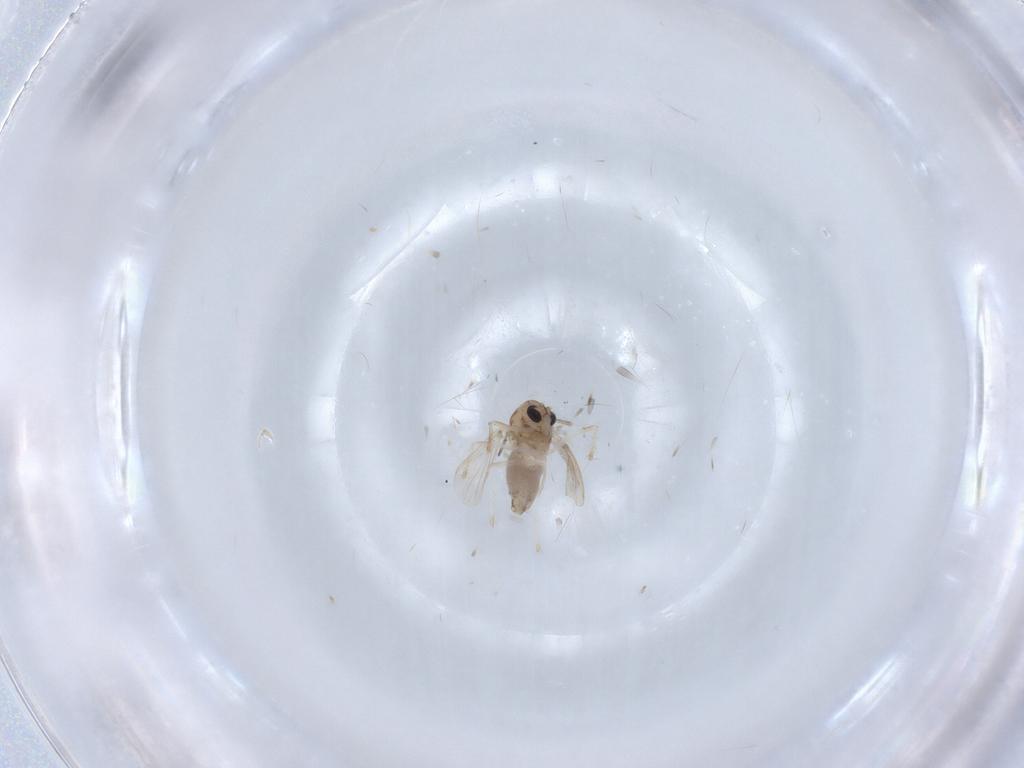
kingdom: Animalia
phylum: Arthropoda
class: Insecta
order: Diptera
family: Chironomidae
